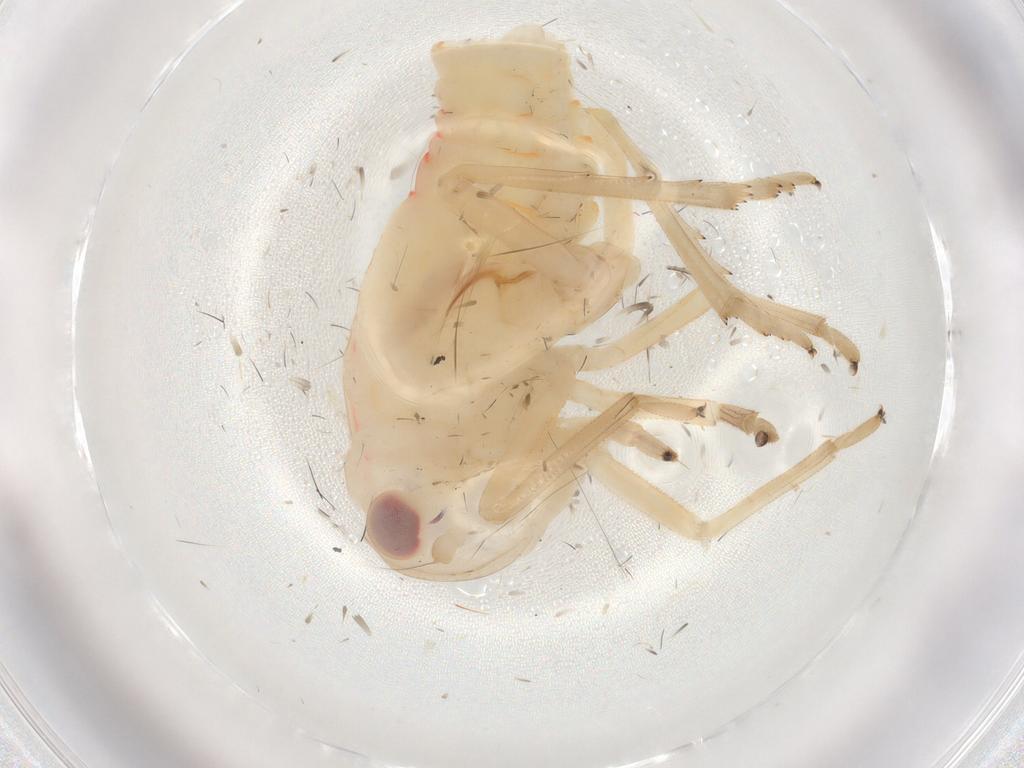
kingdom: Animalia
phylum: Arthropoda
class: Insecta
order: Hemiptera
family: Tropiduchidae
